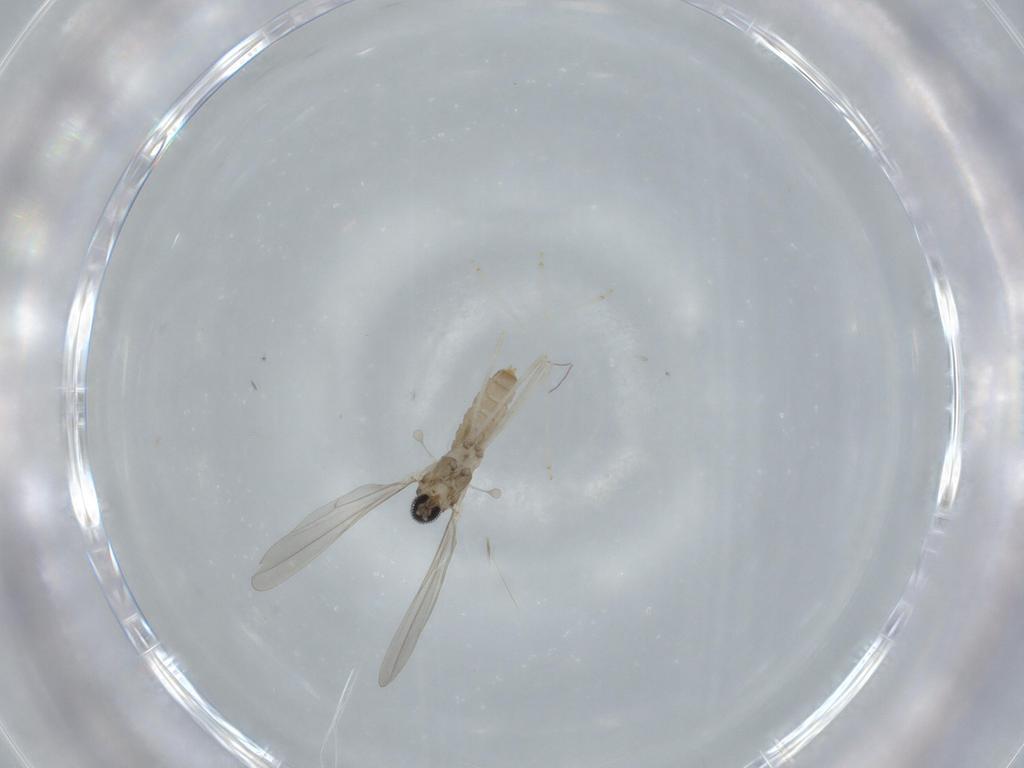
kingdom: Animalia
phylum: Arthropoda
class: Insecta
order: Diptera
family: Cecidomyiidae
